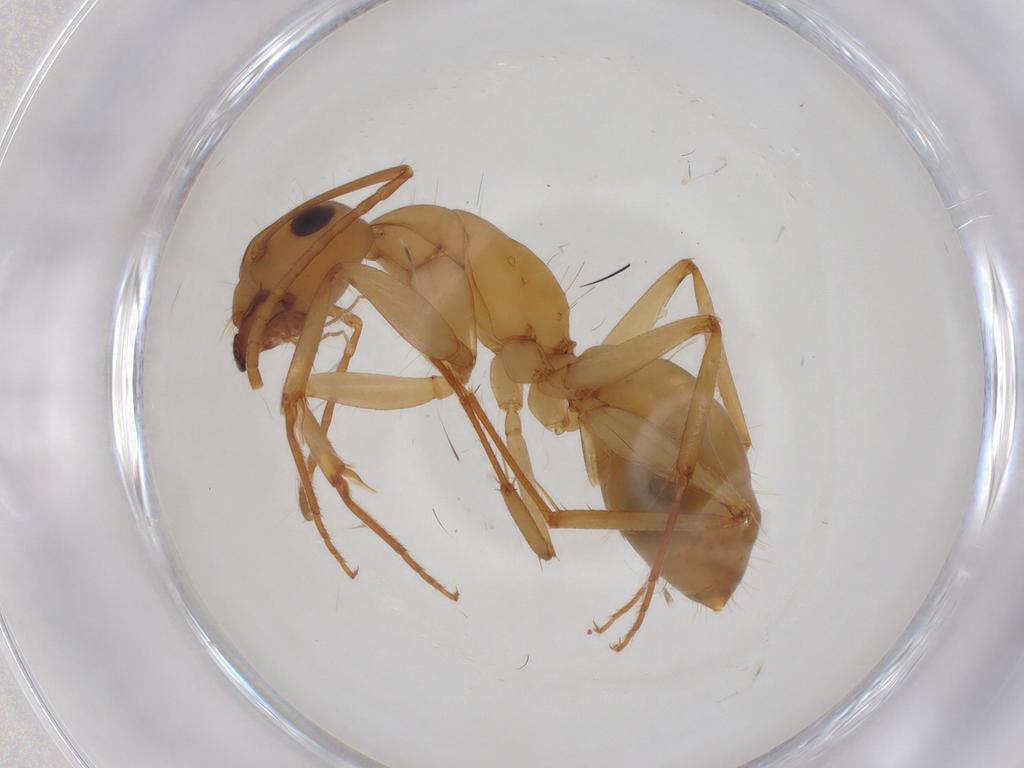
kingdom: Animalia
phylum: Arthropoda
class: Insecta
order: Hymenoptera
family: Formicidae
